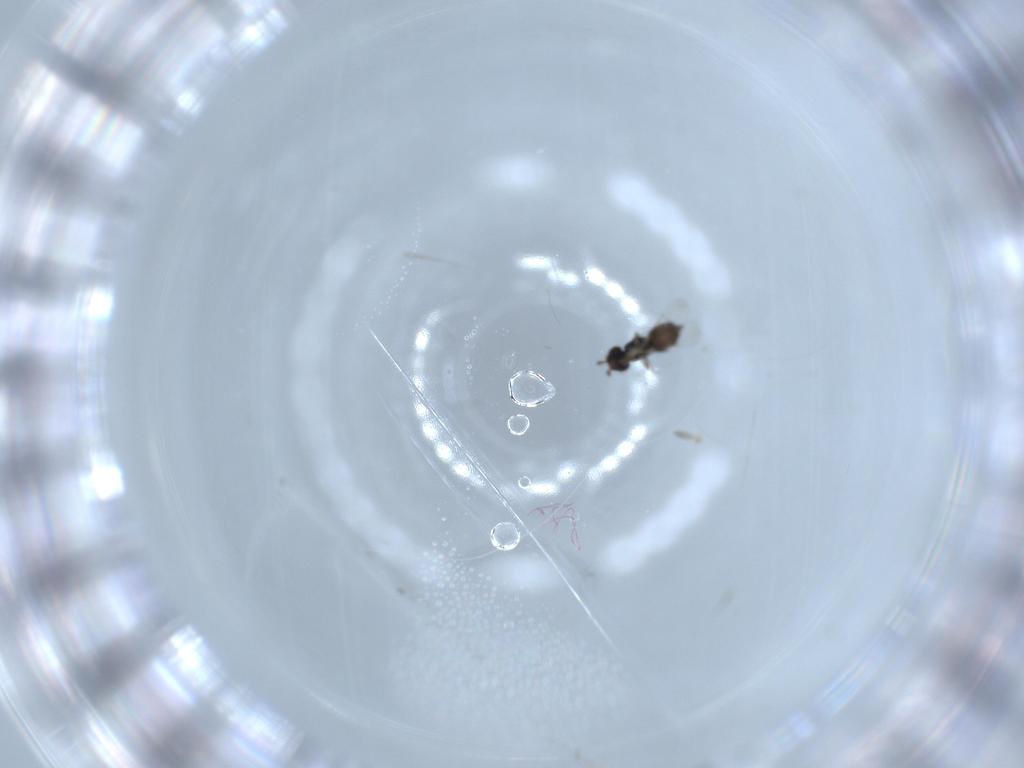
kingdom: Animalia
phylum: Arthropoda
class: Insecta
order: Hymenoptera
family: Pteromalidae
